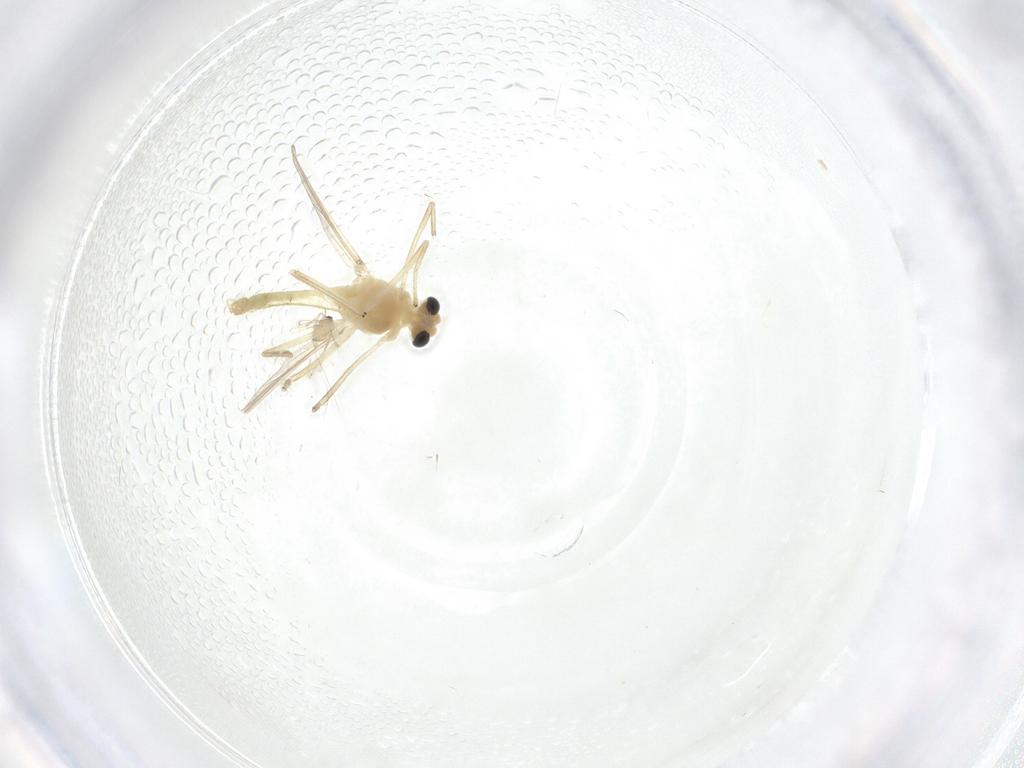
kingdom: Animalia
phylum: Arthropoda
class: Insecta
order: Diptera
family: Chironomidae
